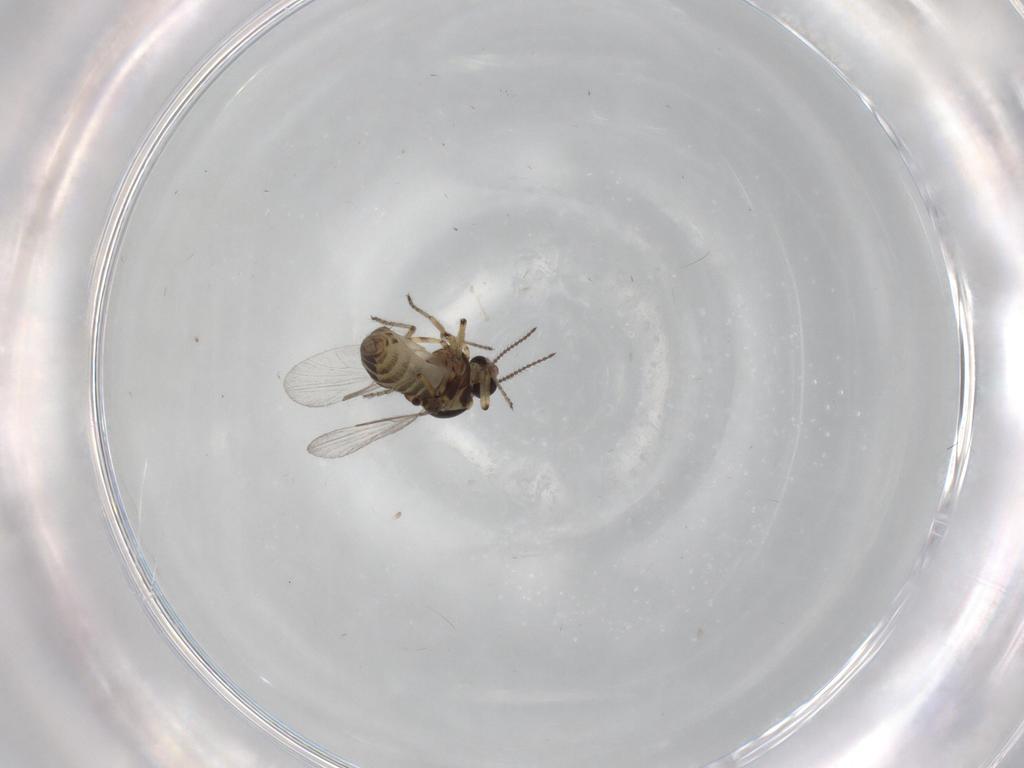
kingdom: Animalia
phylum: Arthropoda
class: Insecta
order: Diptera
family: Ceratopogonidae
